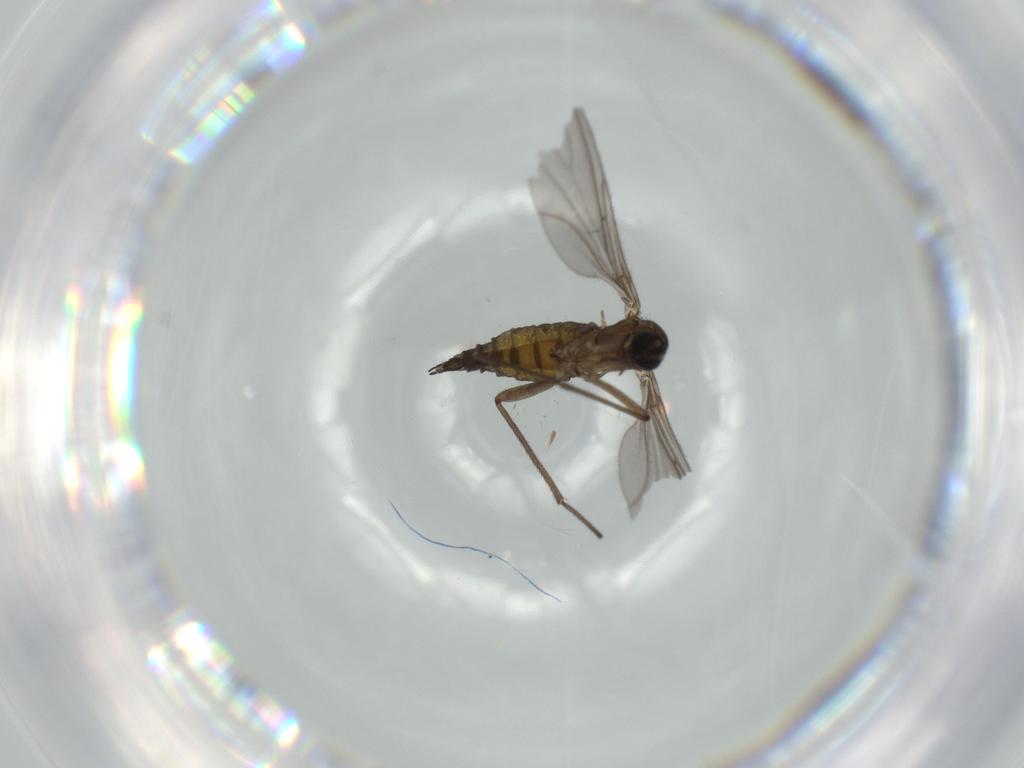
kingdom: Animalia
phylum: Arthropoda
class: Insecta
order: Diptera
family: Sciaridae
